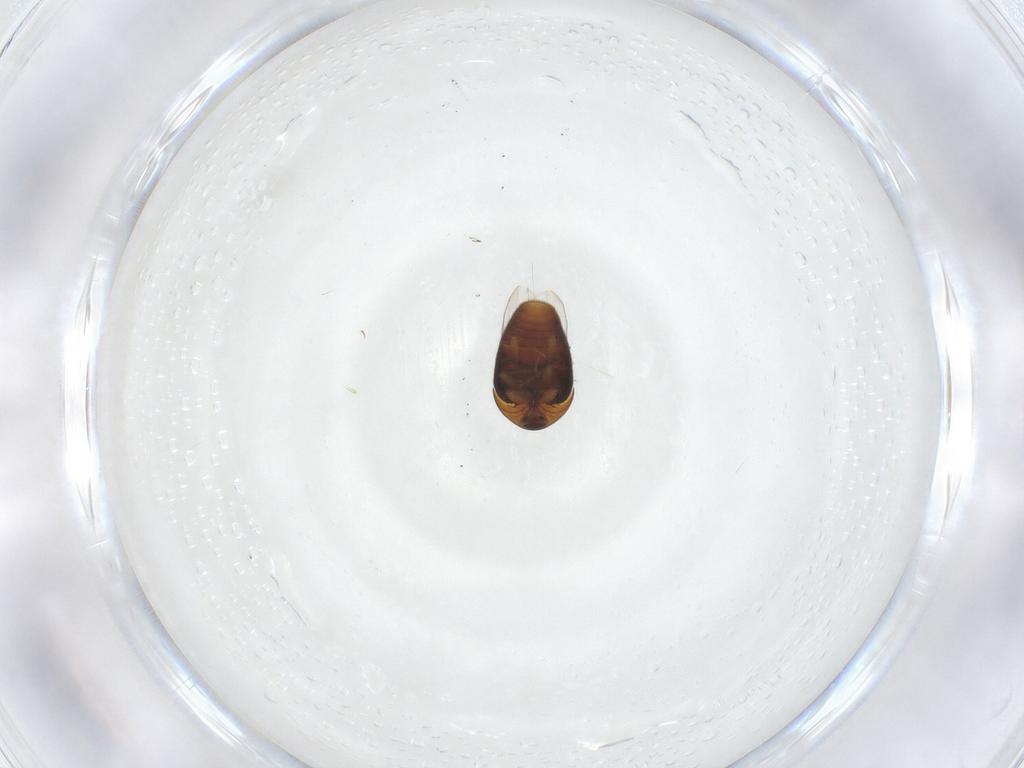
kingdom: Animalia
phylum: Arthropoda
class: Insecta
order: Coleoptera
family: Corylophidae
